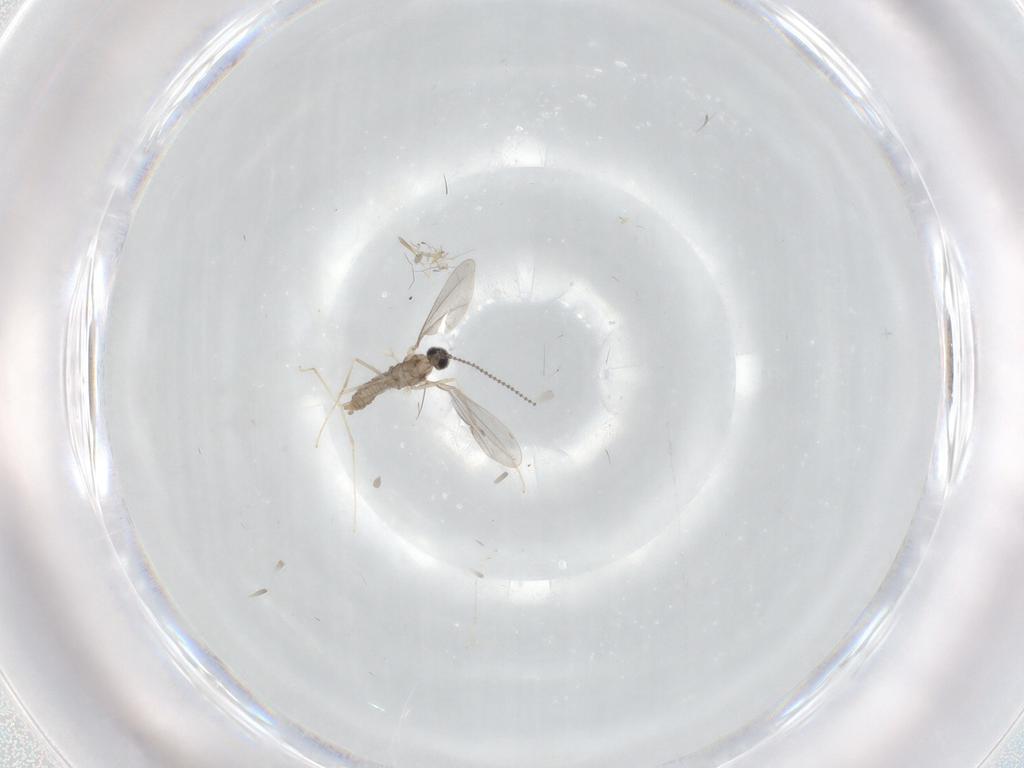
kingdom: Animalia
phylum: Arthropoda
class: Insecta
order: Diptera
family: Cecidomyiidae
